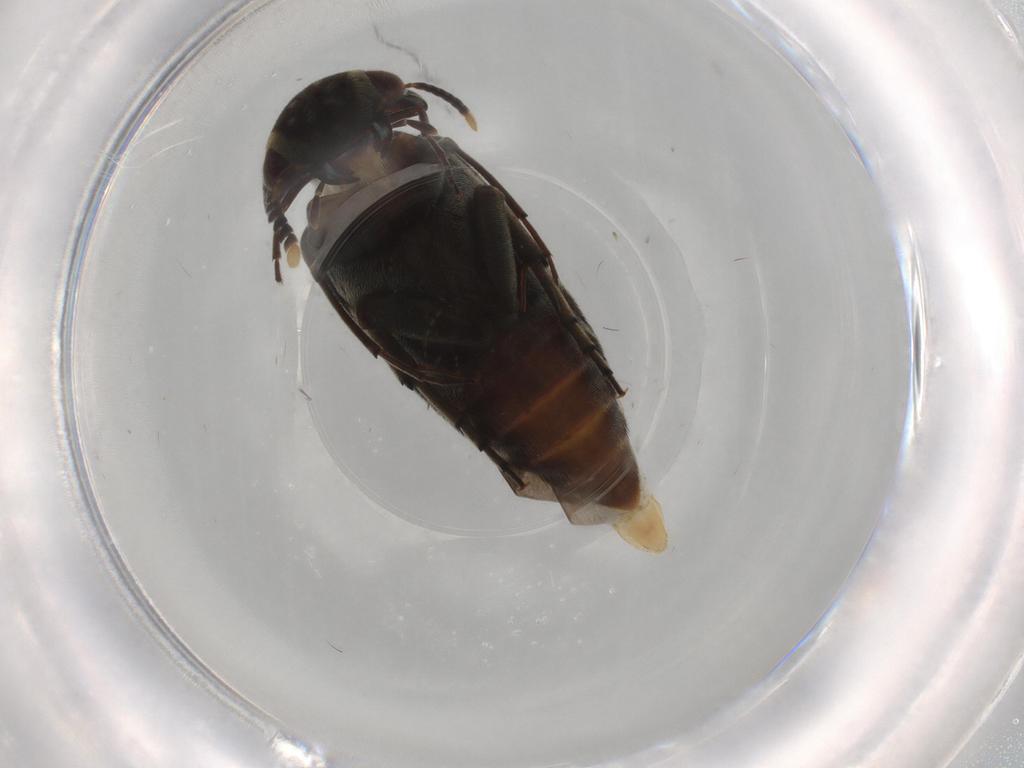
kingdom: Animalia
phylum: Arthropoda
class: Insecta
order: Coleoptera
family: Mordellidae
